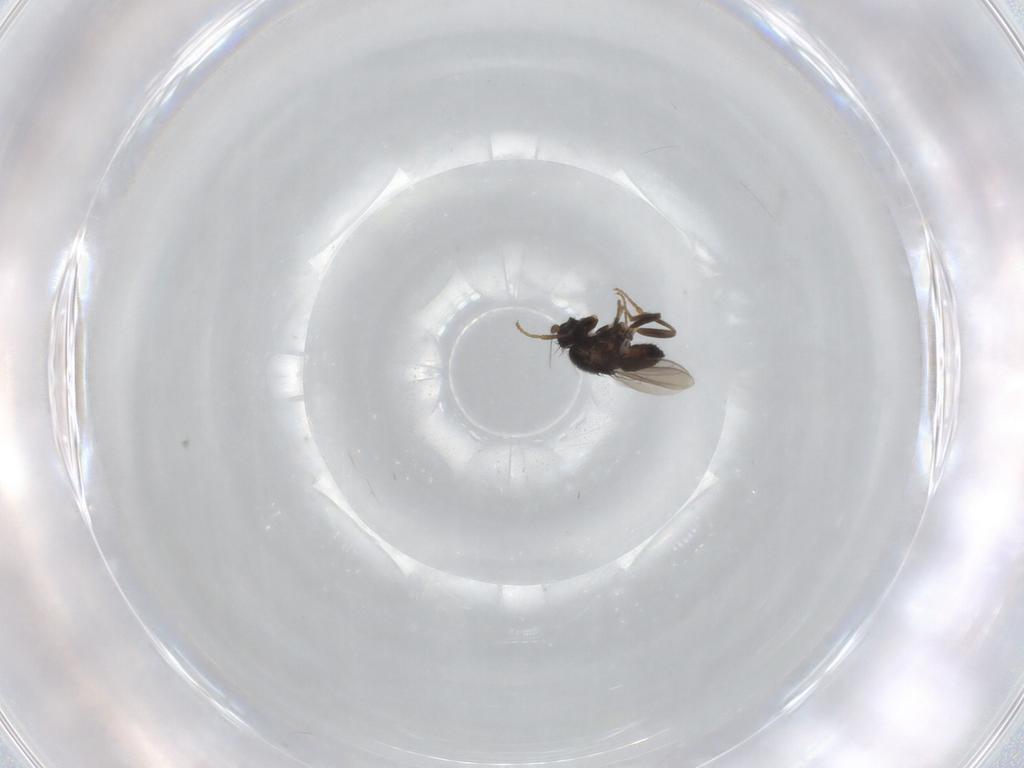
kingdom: Animalia
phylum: Arthropoda
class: Insecta
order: Diptera
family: Sphaeroceridae
